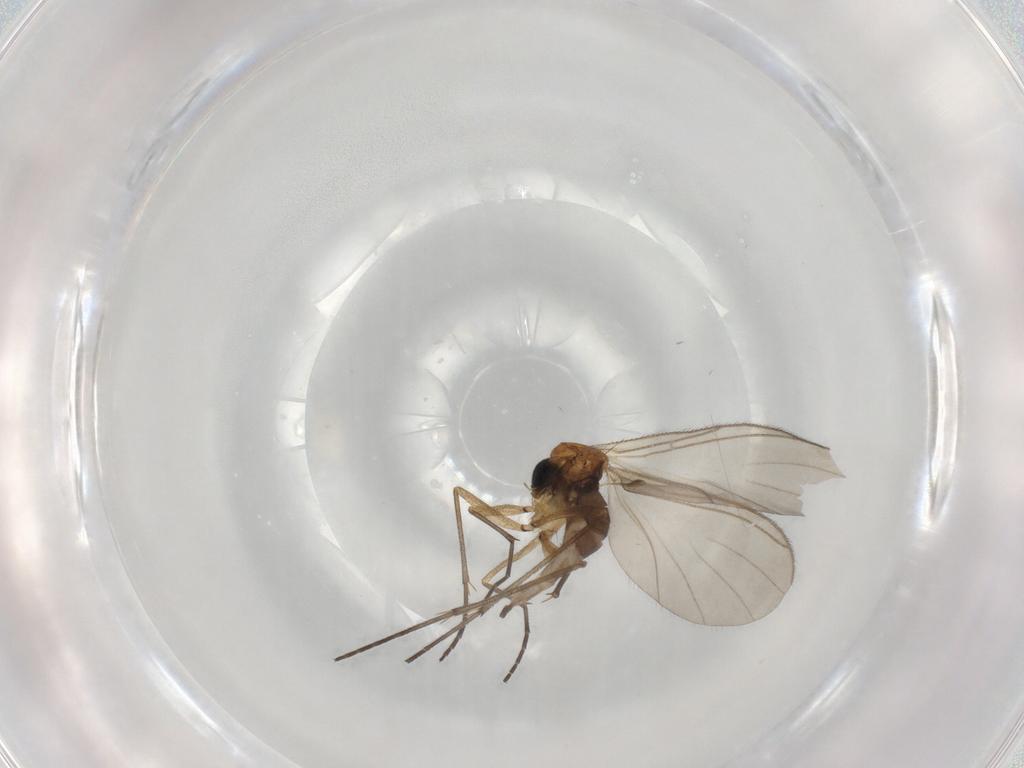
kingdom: Animalia
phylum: Arthropoda
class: Insecta
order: Diptera
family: Sciaridae
